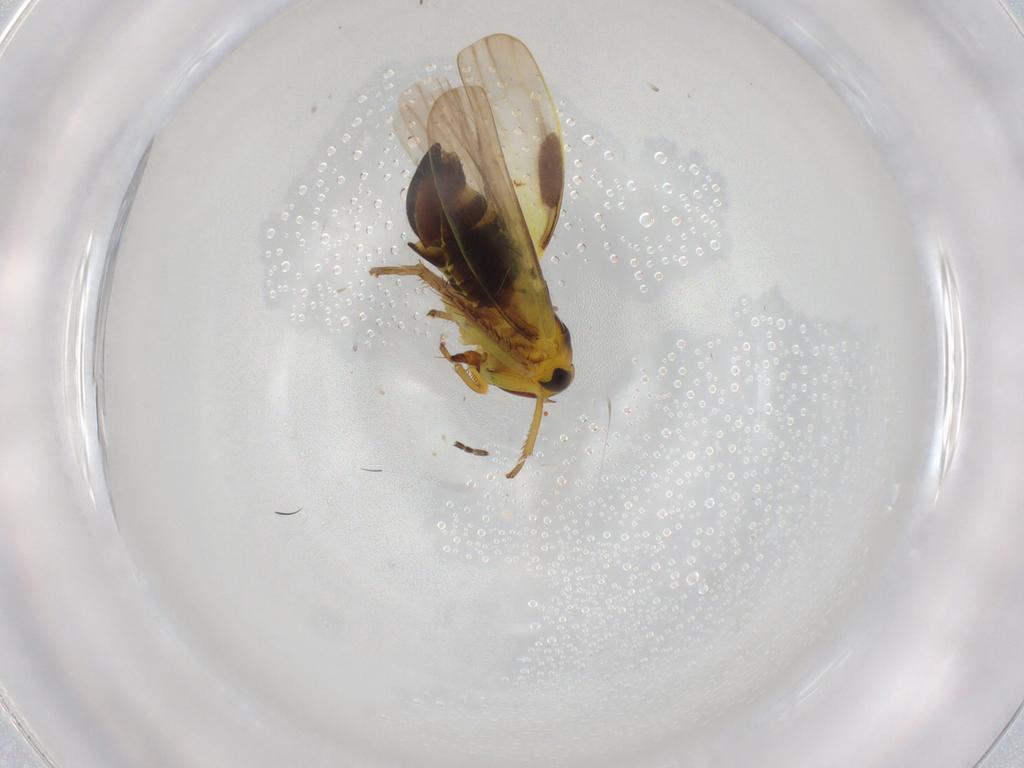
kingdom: Animalia
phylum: Arthropoda
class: Insecta
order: Hemiptera
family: Cicadellidae
